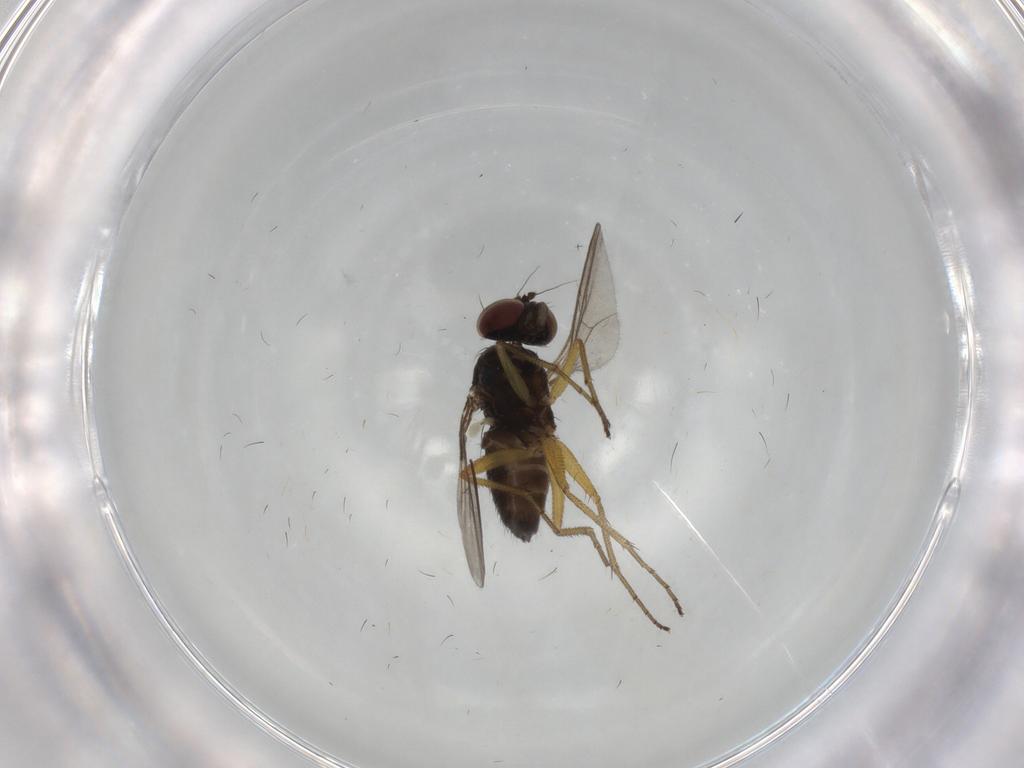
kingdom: Animalia
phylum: Arthropoda
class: Insecta
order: Diptera
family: Dolichopodidae
